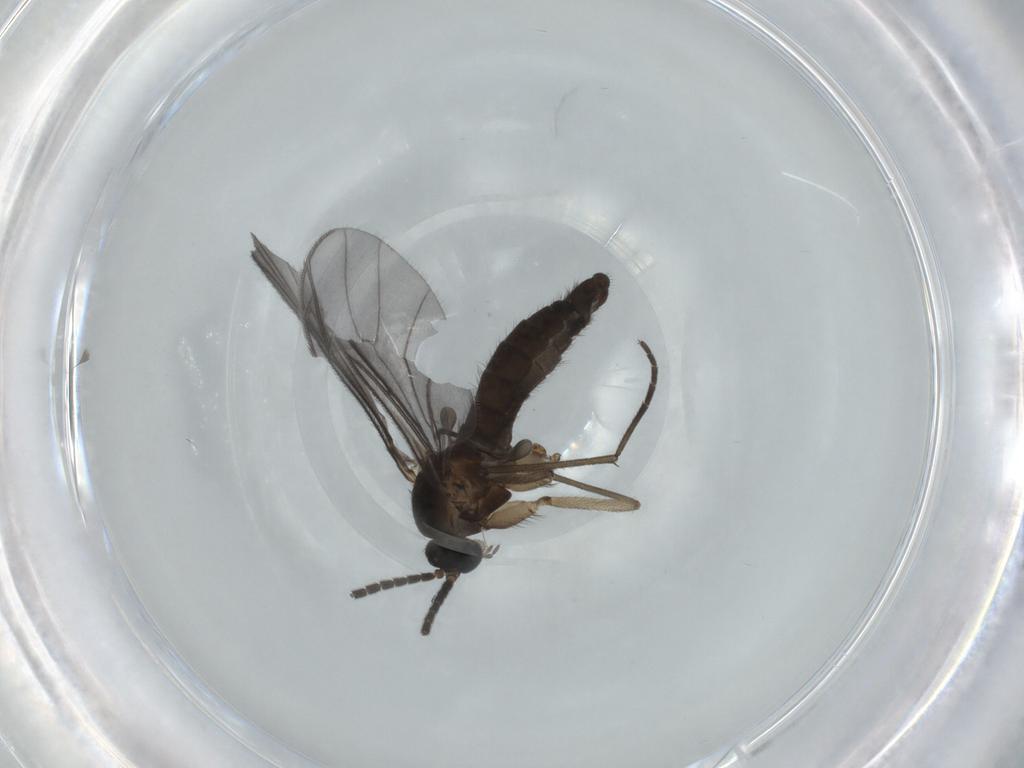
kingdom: Animalia
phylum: Arthropoda
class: Insecta
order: Diptera
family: Sciaridae
